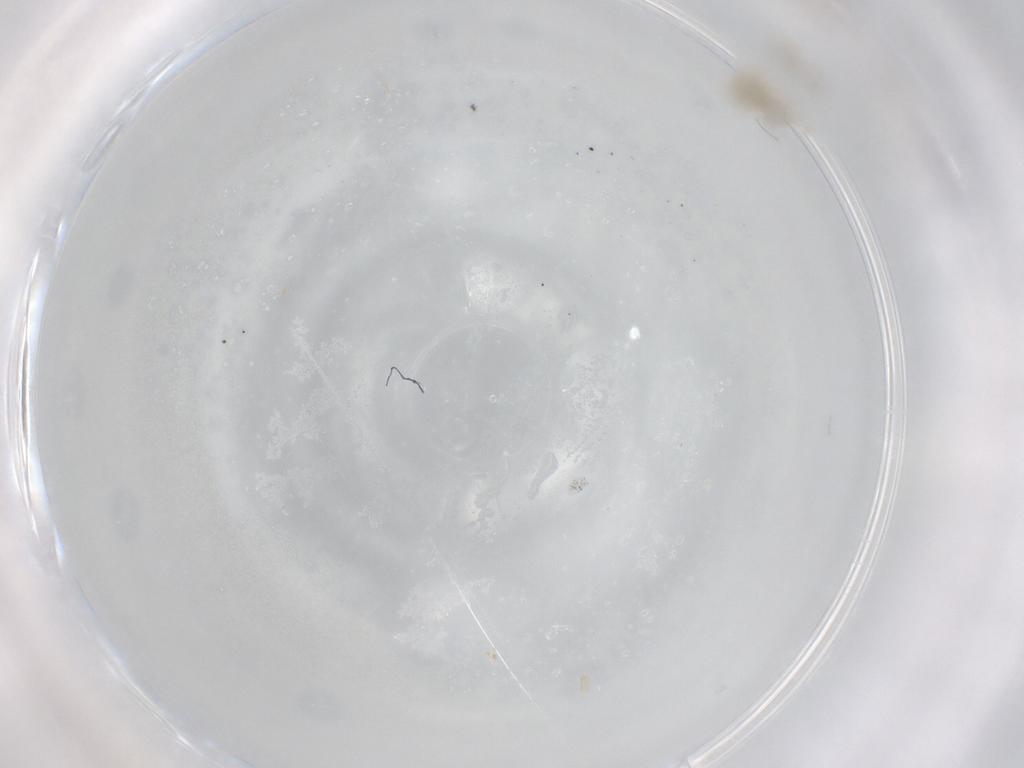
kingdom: Animalia
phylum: Arthropoda
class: Arachnida
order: Trombidiformes
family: Cunaxidae
